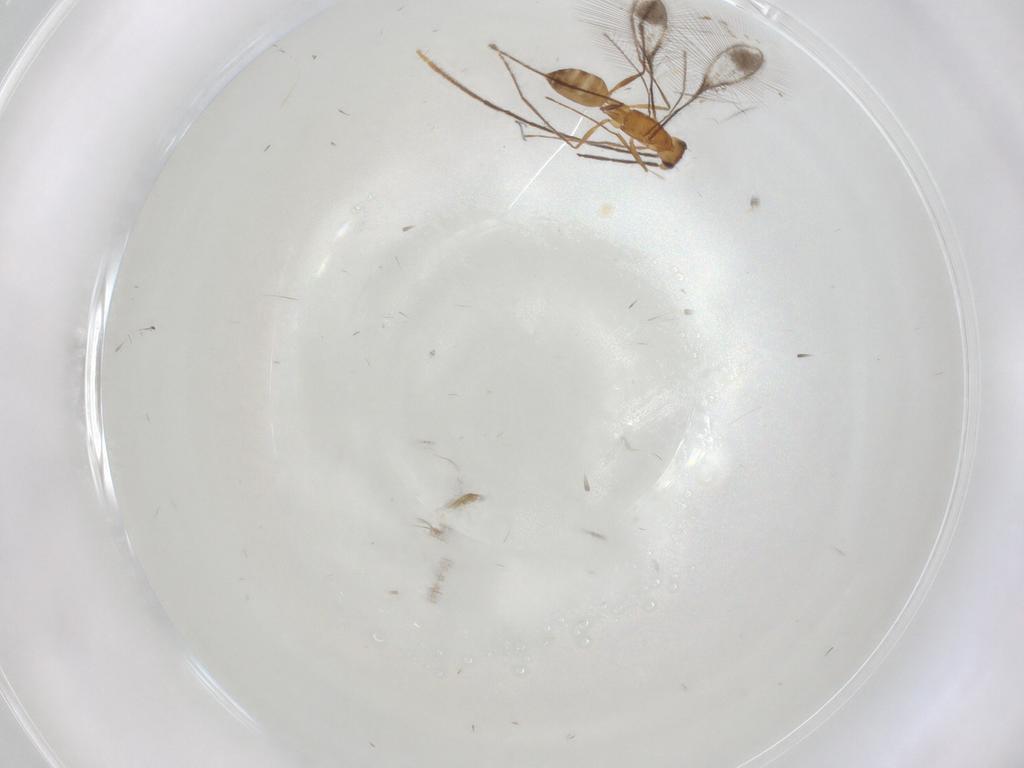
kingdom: Animalia
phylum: Arthropoda
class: Insecta
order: Hymenoptera
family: Mymaridae
